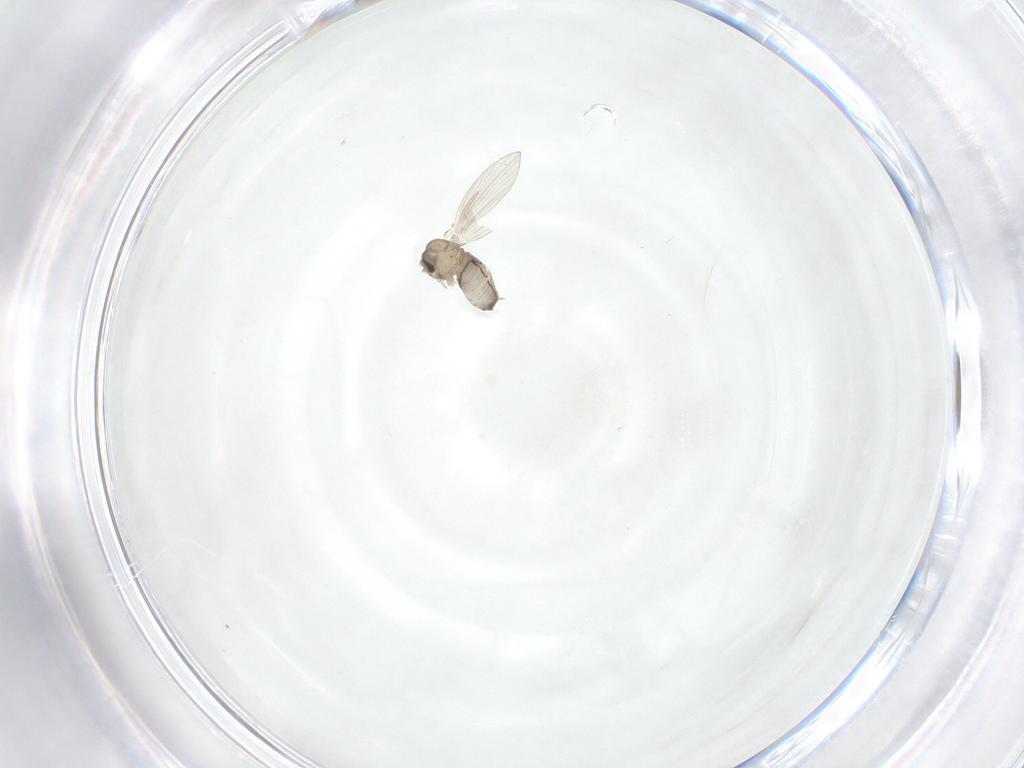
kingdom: Animalia
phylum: Arthropoda
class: Insecta
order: Diptera
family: Psychodidae
